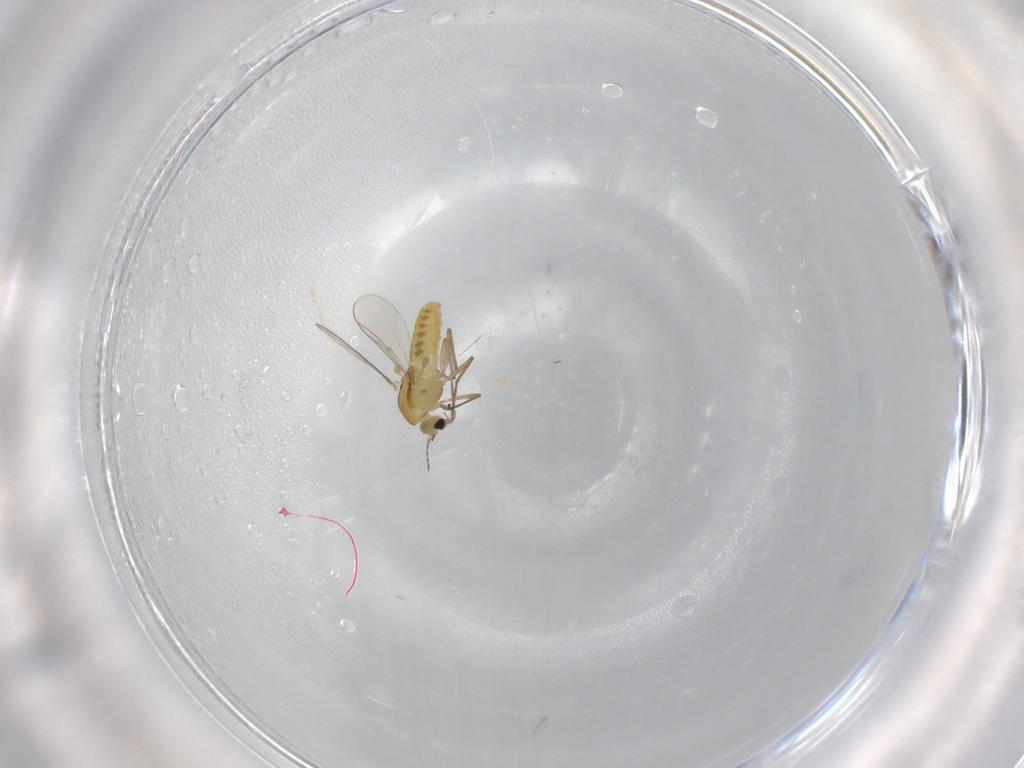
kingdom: Animalia
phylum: Arthropoda
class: Insecta
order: Diptera
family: Chironomidae
